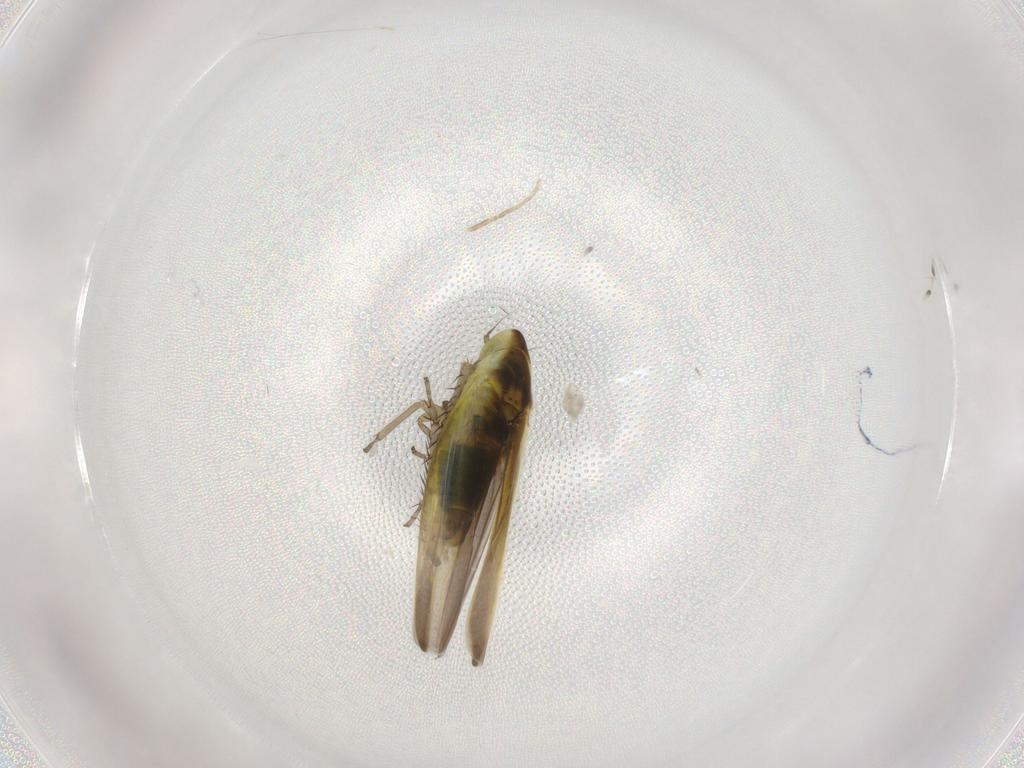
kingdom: Animalia
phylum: Arthropoda
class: Insecta
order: Hemiptera
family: Cicadellidae
